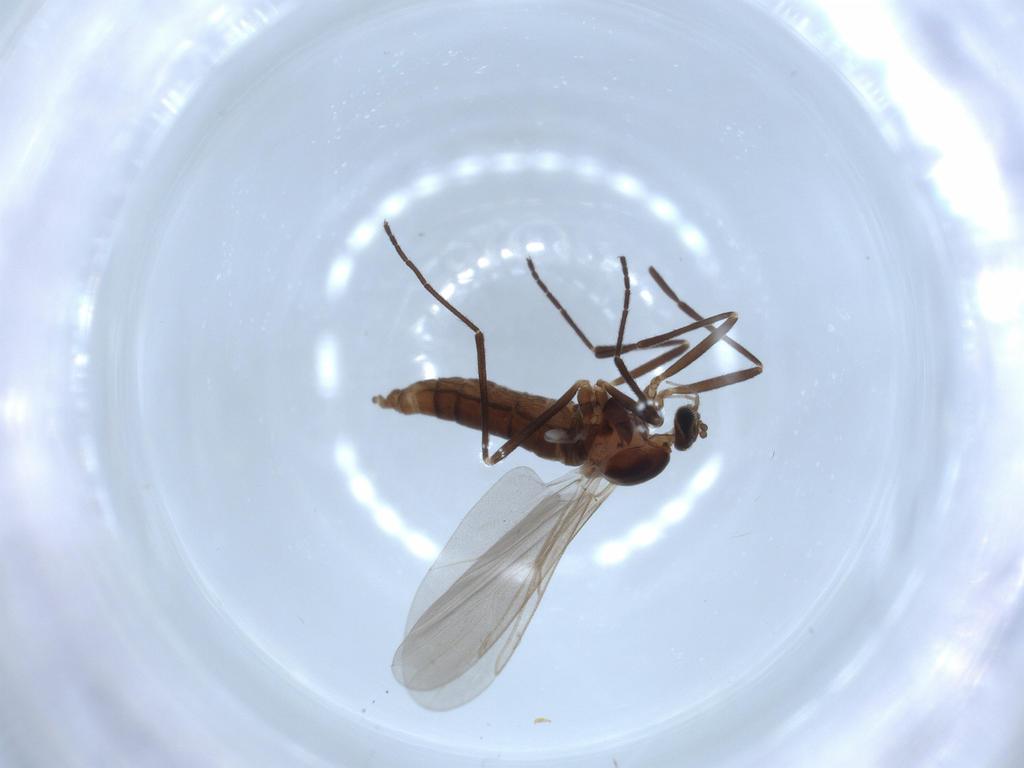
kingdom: Animalia
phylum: Arthropoda
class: Insecta
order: Diptera
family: Cecidomyiidae
